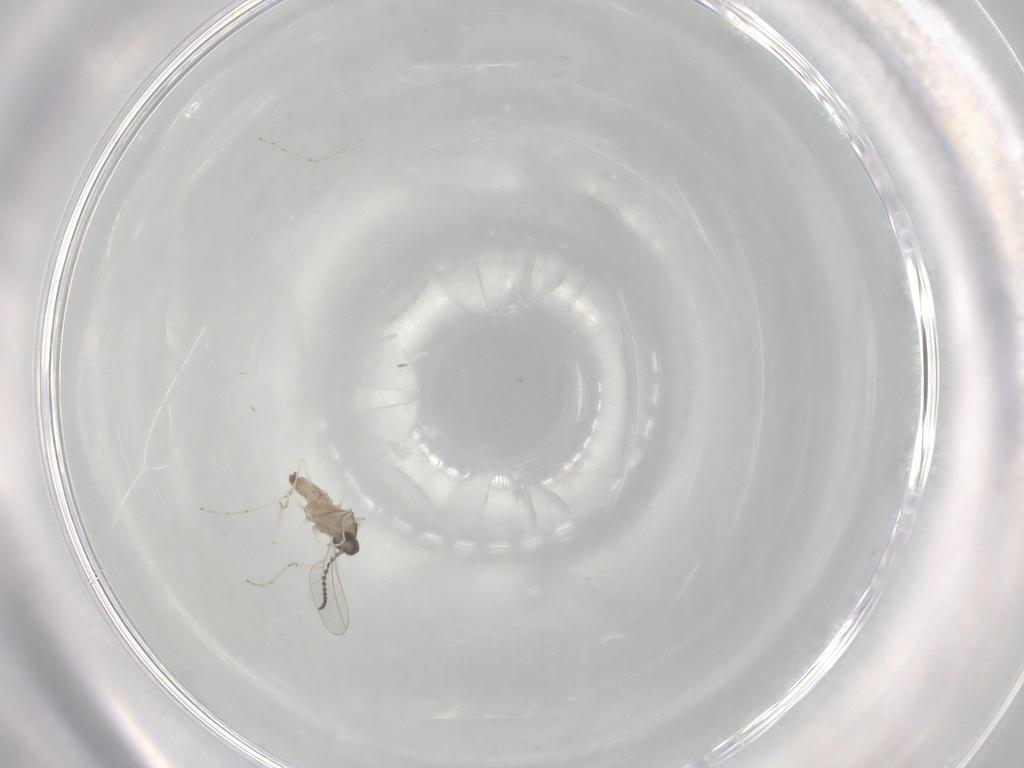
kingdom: Animalia
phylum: Arthropoda
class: Insecta
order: Diptera
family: Cecidomyiidae
